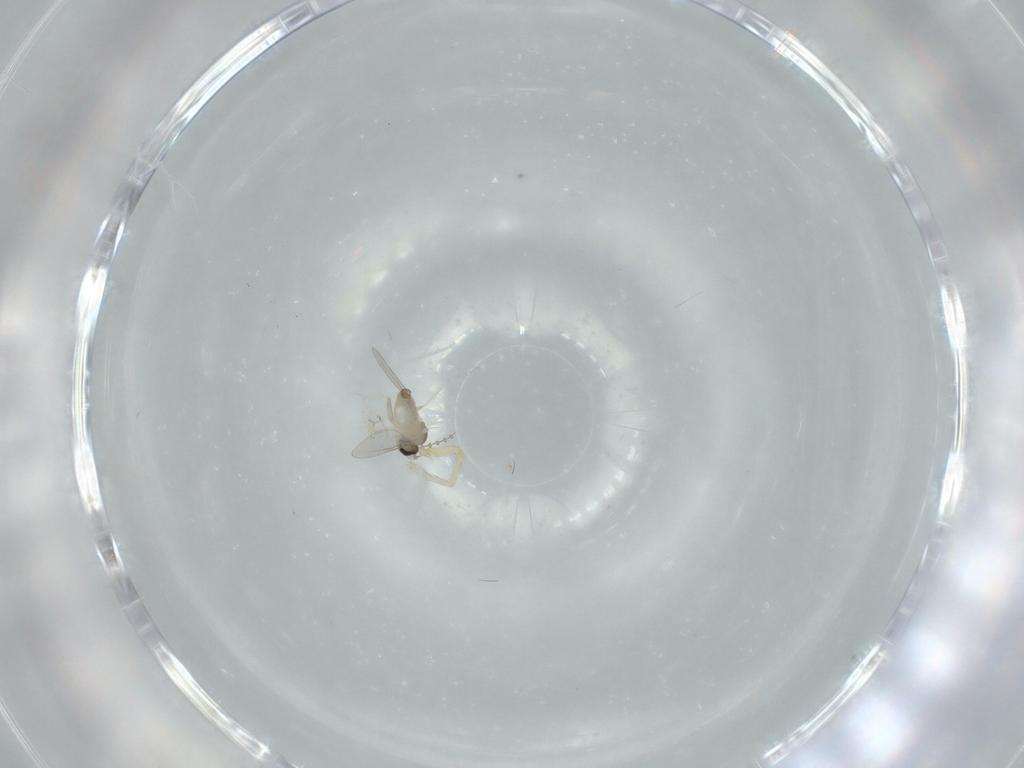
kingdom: Animalia
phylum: Arthropoda
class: Insecta
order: Diptera
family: Cecidomyiidae
